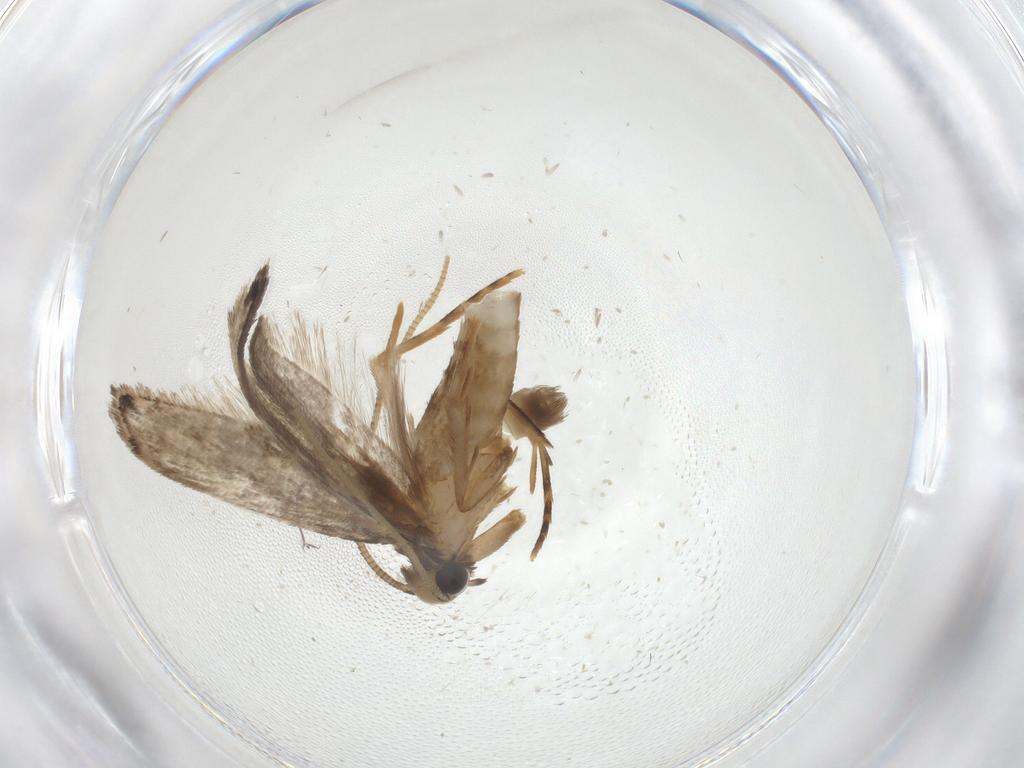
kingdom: Animalia
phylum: Arthropoda
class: Insecta
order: Lepidoptera
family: Tineidae
